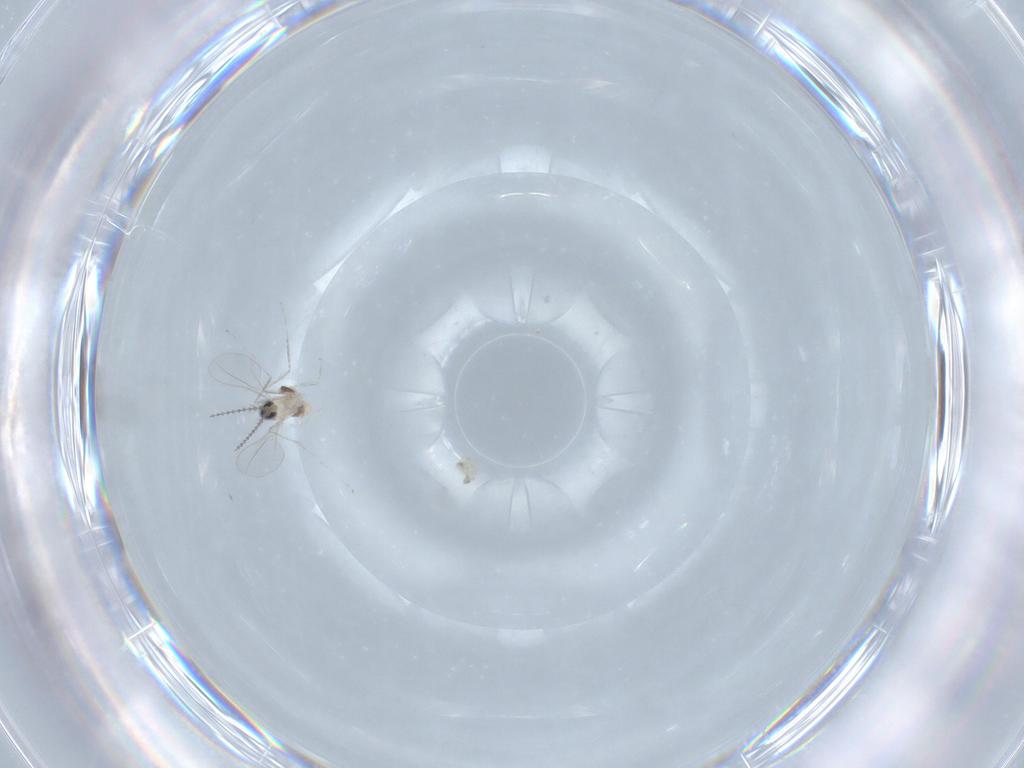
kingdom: Animalia
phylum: Arthropoda
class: Insecta
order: Diptera
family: Cecidomyiidae
